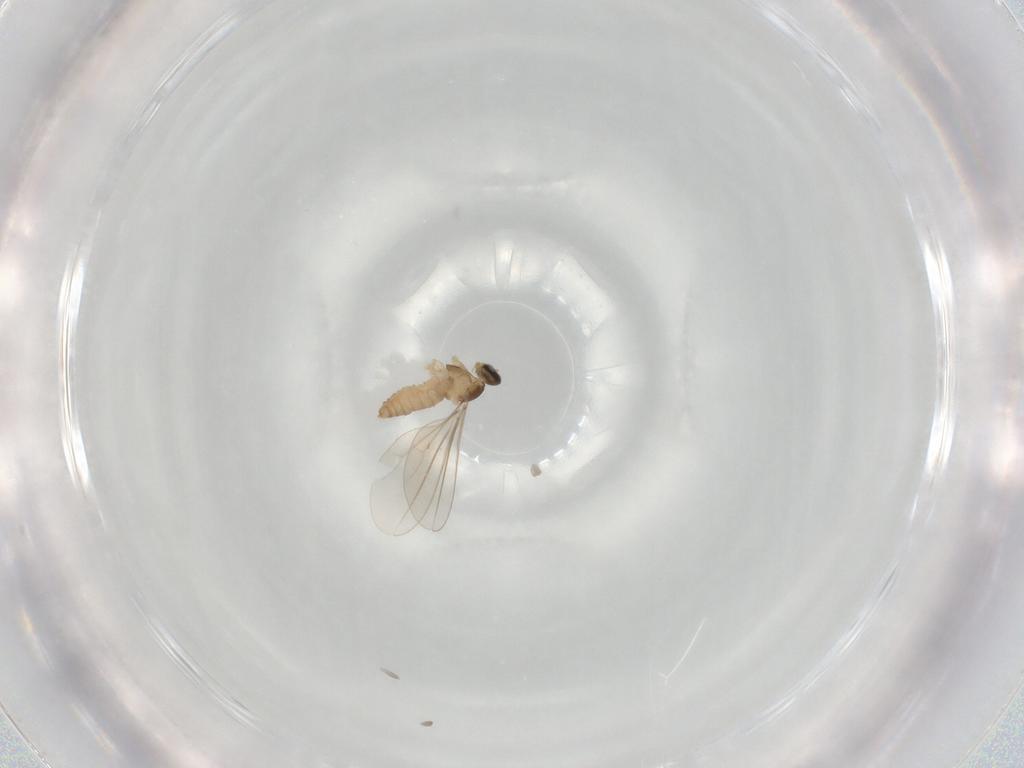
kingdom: Animalia
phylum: Arthropoda
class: Insecta
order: Diptera
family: Cecidomyiidae
